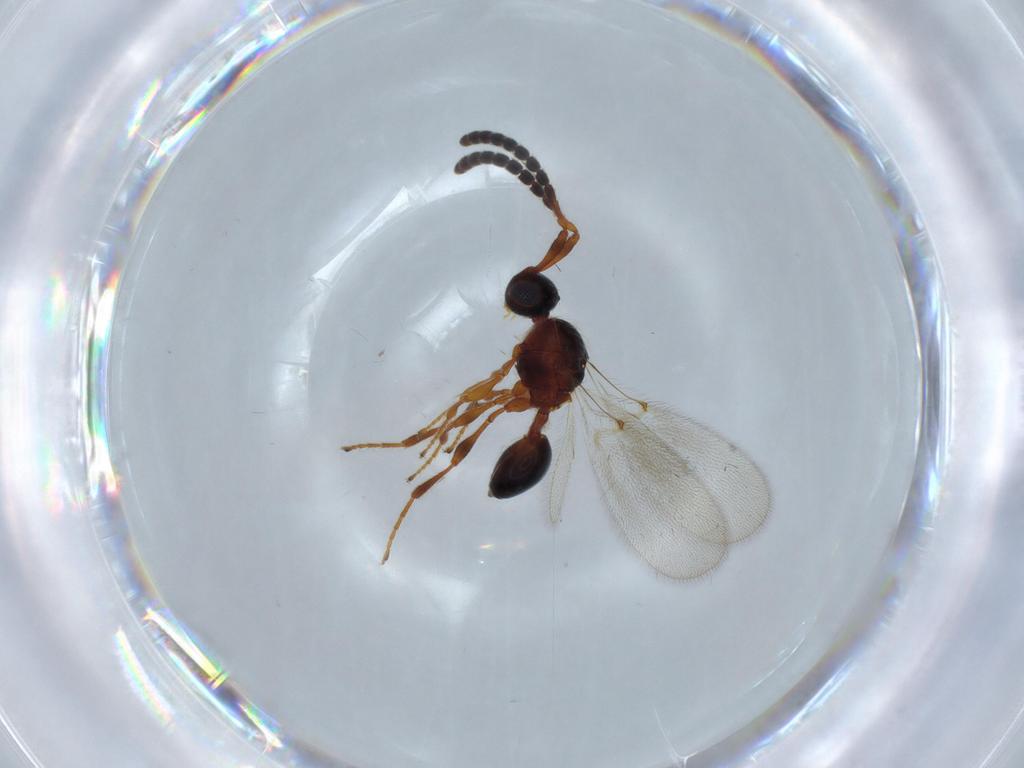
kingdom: Animalia
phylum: Arthropoda
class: Insecta
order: Hymenoptera
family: Diapriidae
